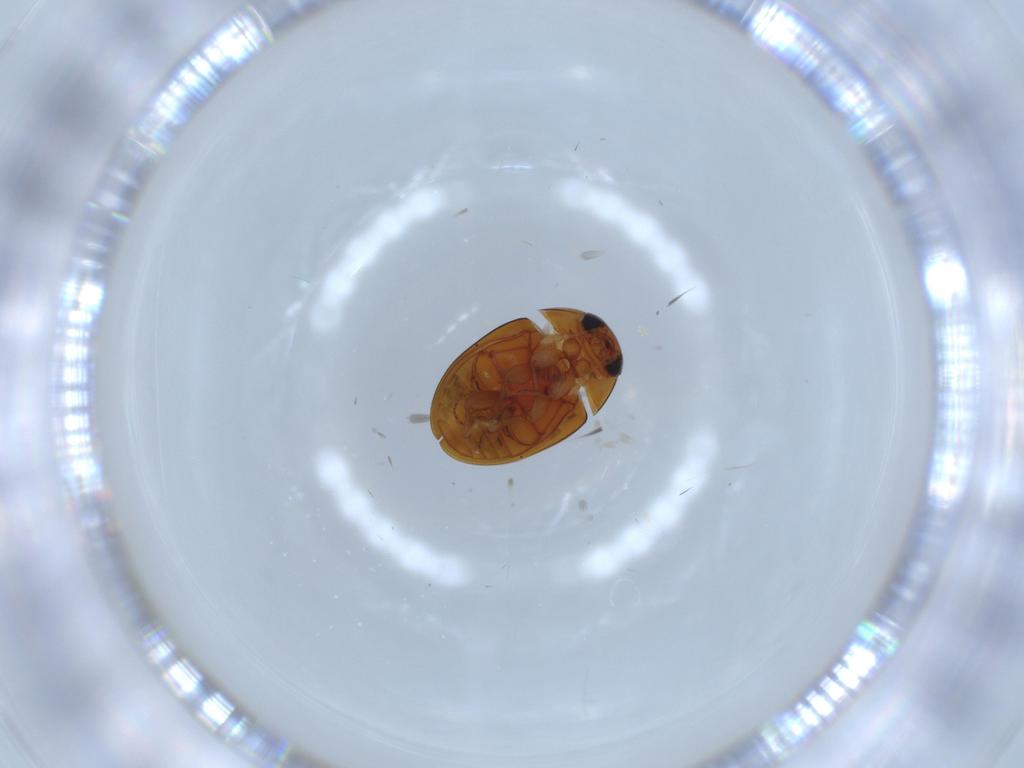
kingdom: Animalia
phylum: Arthropoda
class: Insecta
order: Coleoptera
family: Phalacridae
